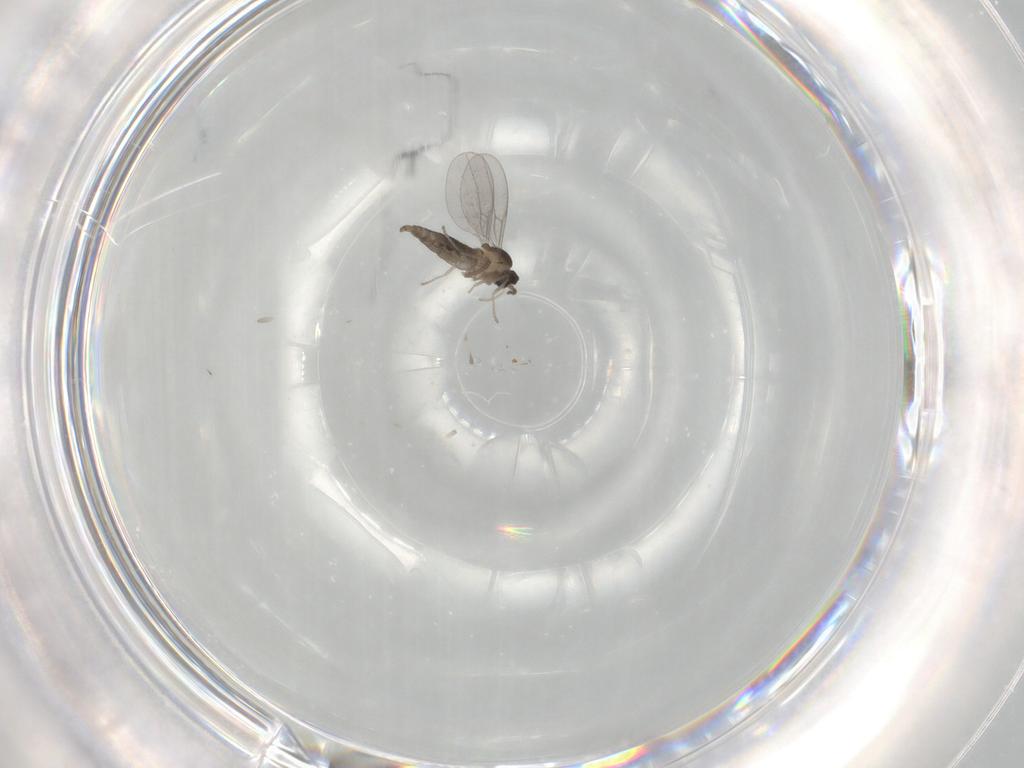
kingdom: Animalia
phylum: Arthropoda
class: Insecta
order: Diptera
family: Cecidomyiidae
